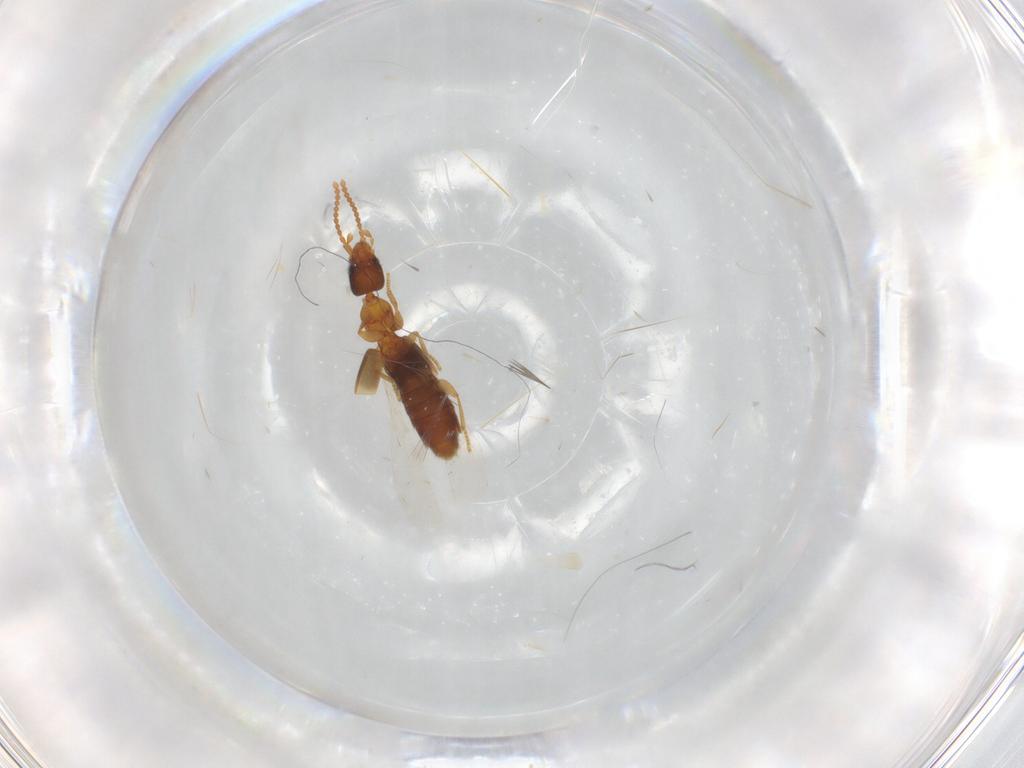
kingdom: Animalia
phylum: Arthropoda
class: Insecta
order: Coleoptera
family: Staphylinidae
